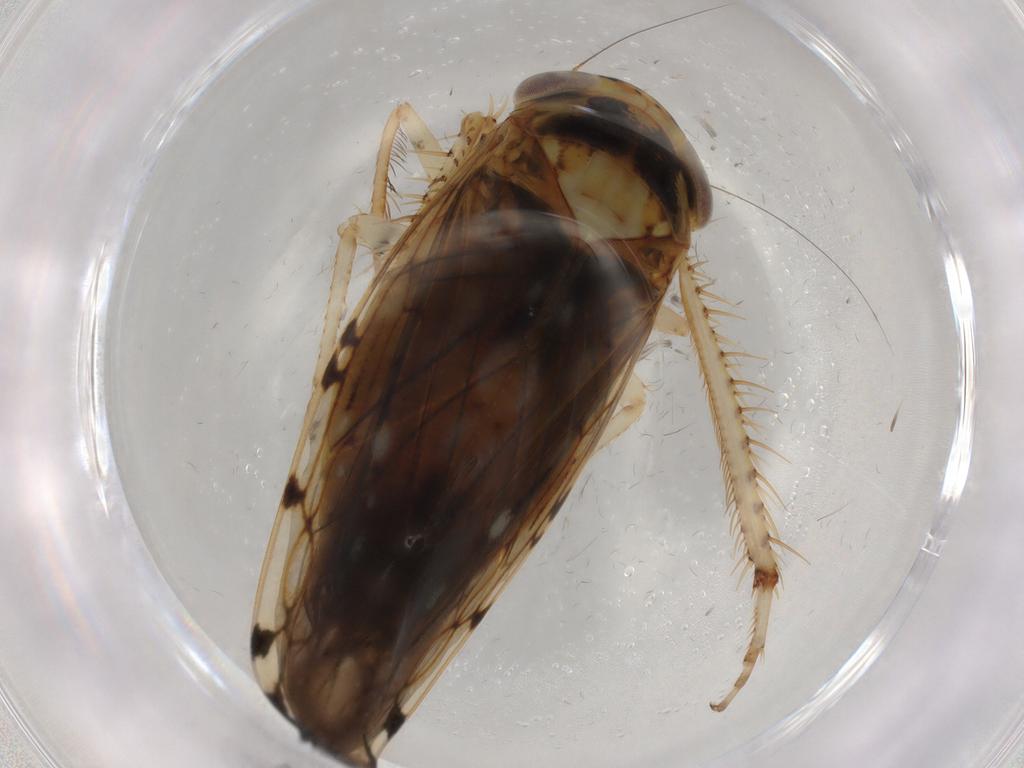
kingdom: Animalia
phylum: Arthropoda
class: Insecta
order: Hemiptera
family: Cicadellidae
